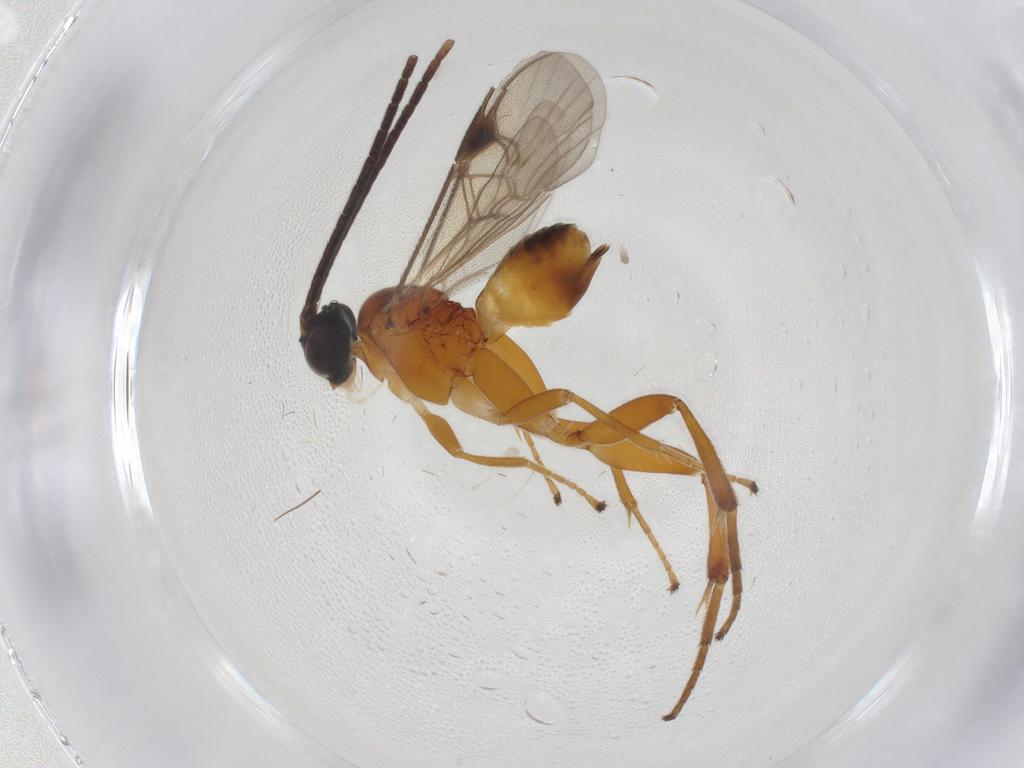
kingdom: Animalia
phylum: Arthropoda
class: Insecta
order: Hymenoptera
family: Braconidae
